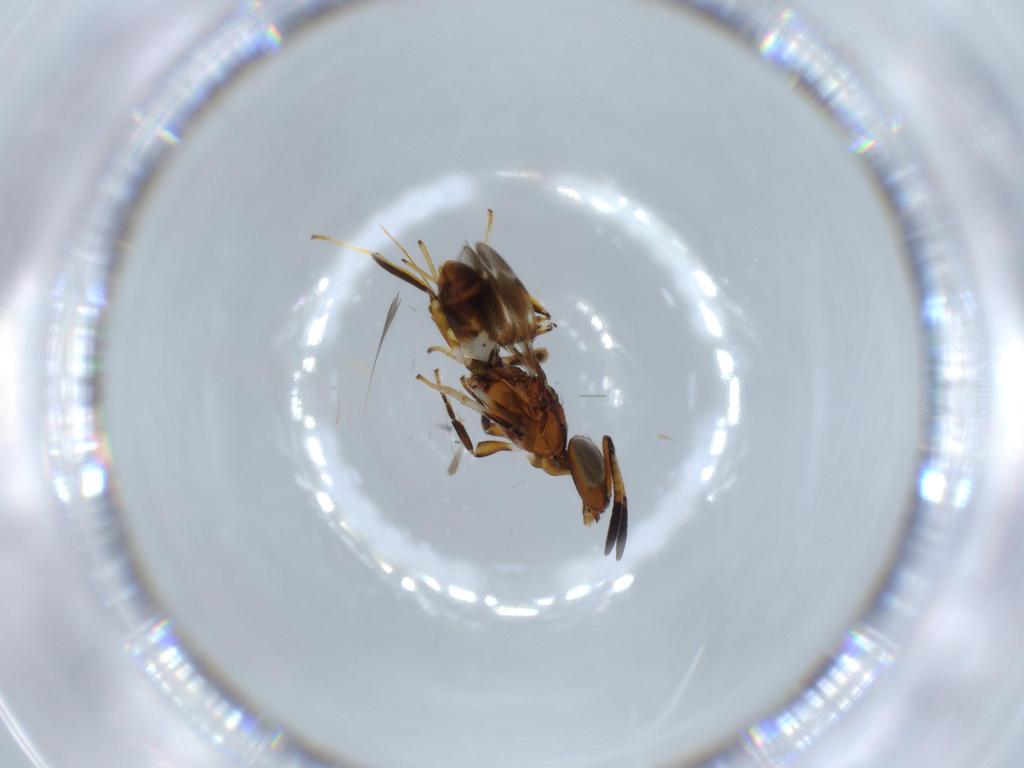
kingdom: Animalia
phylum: Arthropoda
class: Insecta
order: Hymenoptera
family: Eupelmidae
